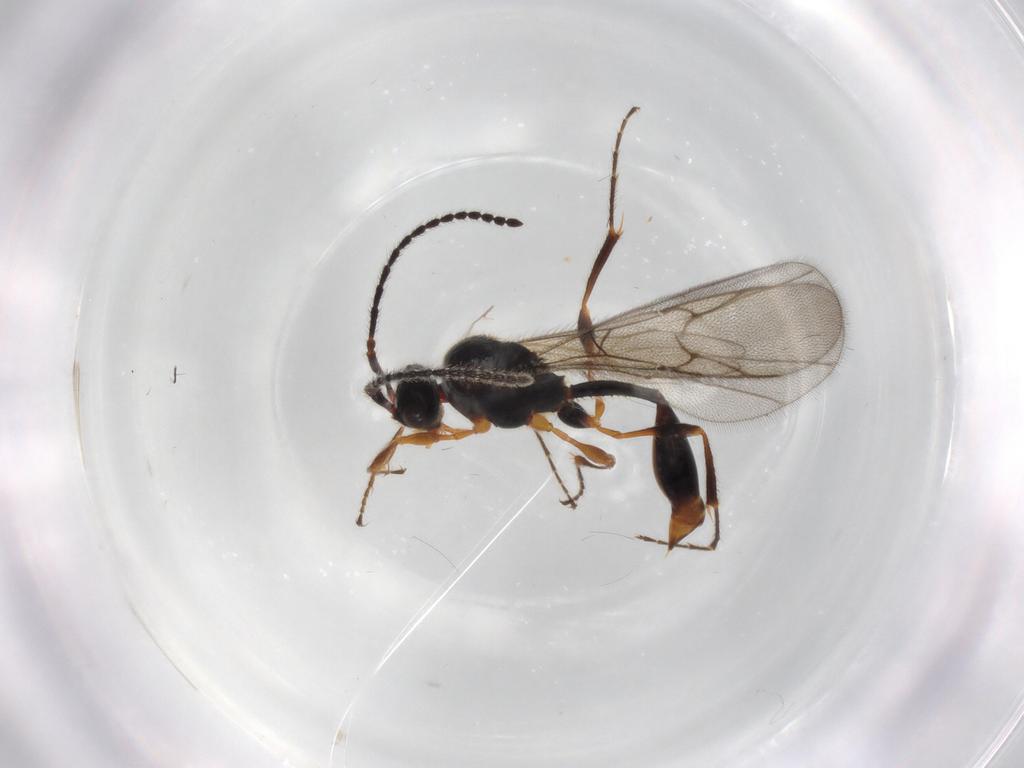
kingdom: Animalia
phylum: Arthropoda
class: Insecta
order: Hymenoptera
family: Diapriidae
